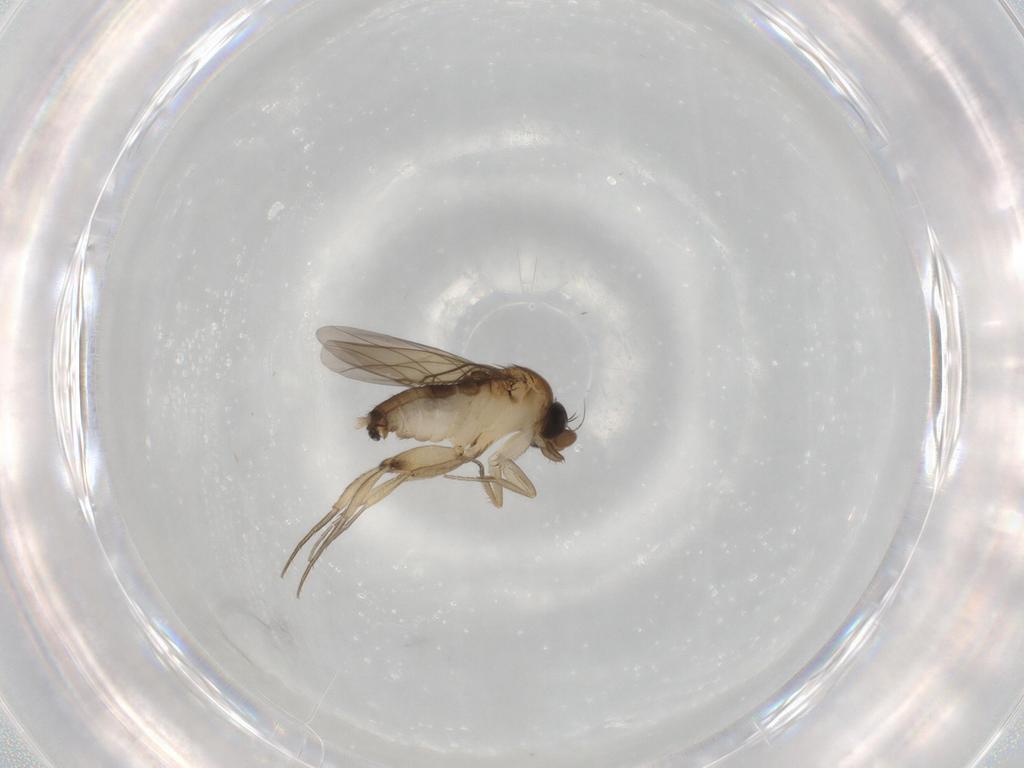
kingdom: Animalia
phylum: Arthropoda
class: Insecta
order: Diptera
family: Phoridae
